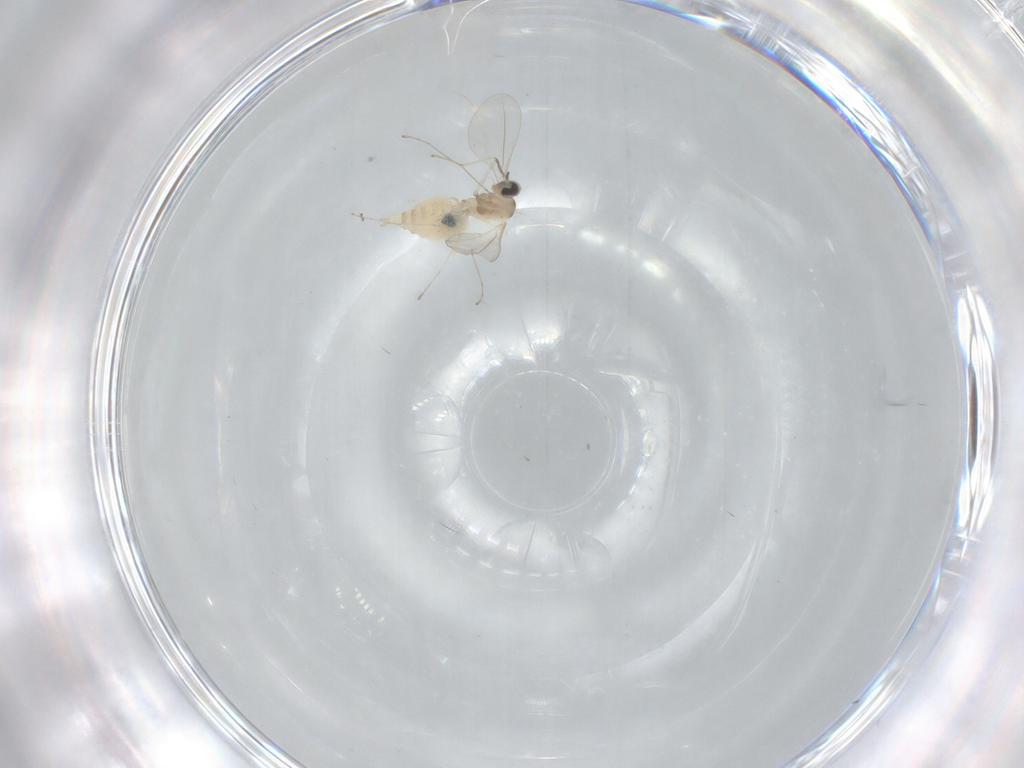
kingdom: Animalia
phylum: Arthropoda
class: Insecta
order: Diptera
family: Cecidomyiidae
